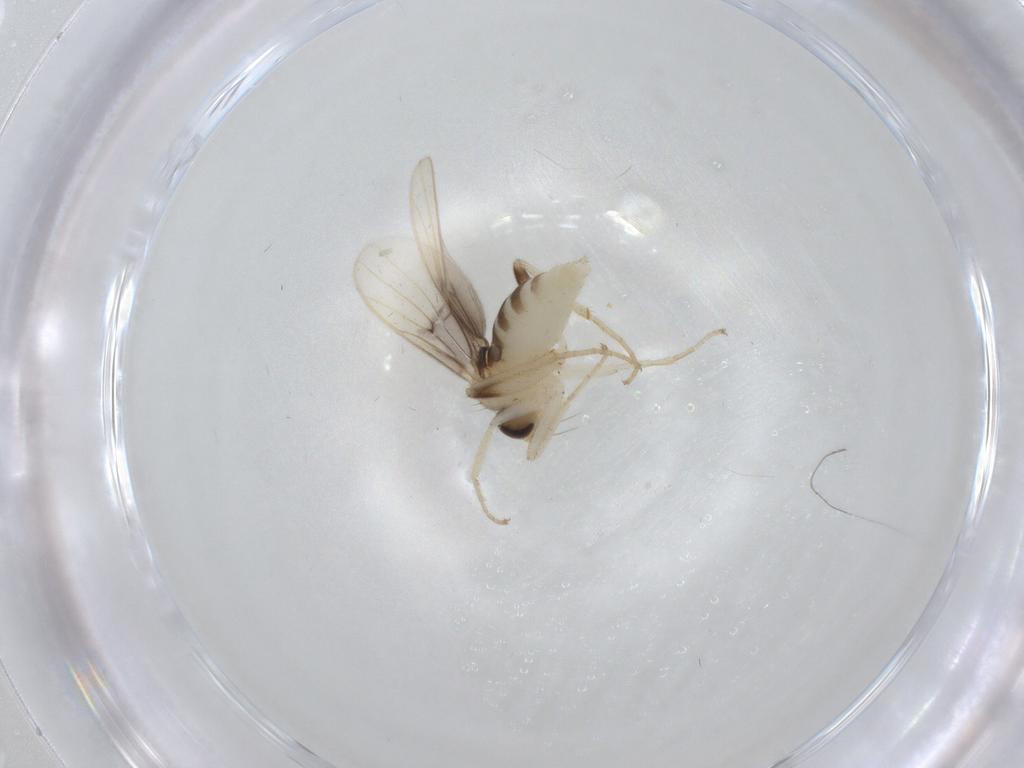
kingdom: Animalia
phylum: Arthropoda
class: Insecta
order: Diptera
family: Hybotidae
